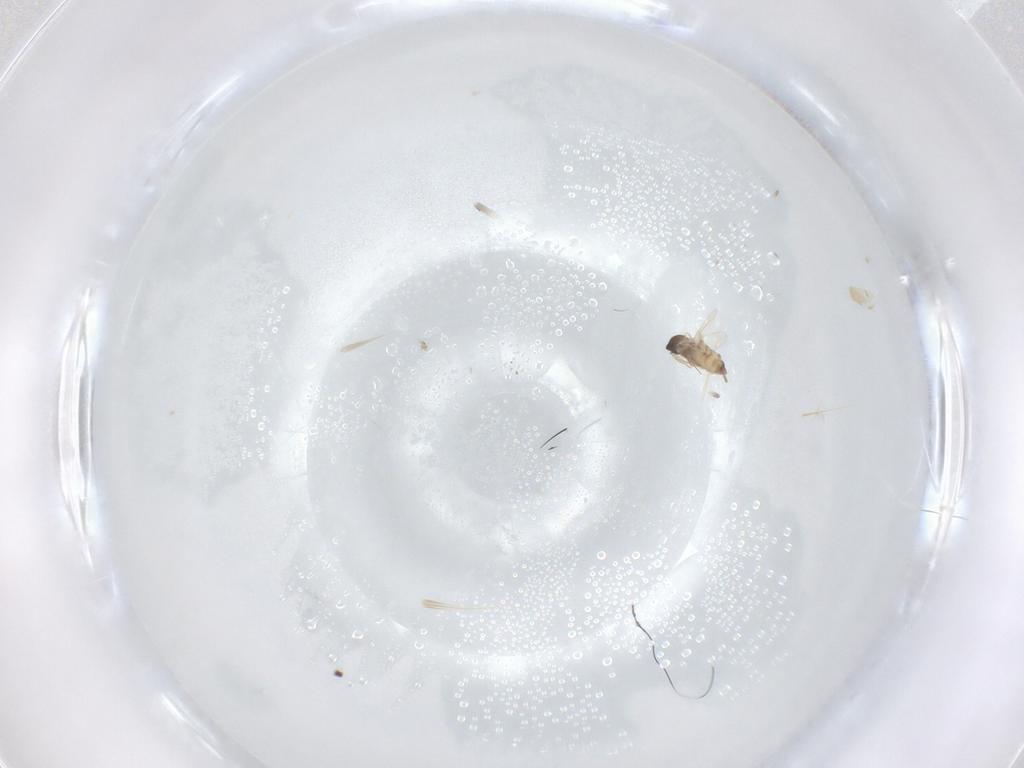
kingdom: Animalia
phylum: Arthropoda
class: Insecta
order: Diptera
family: Cecidomyiidae
